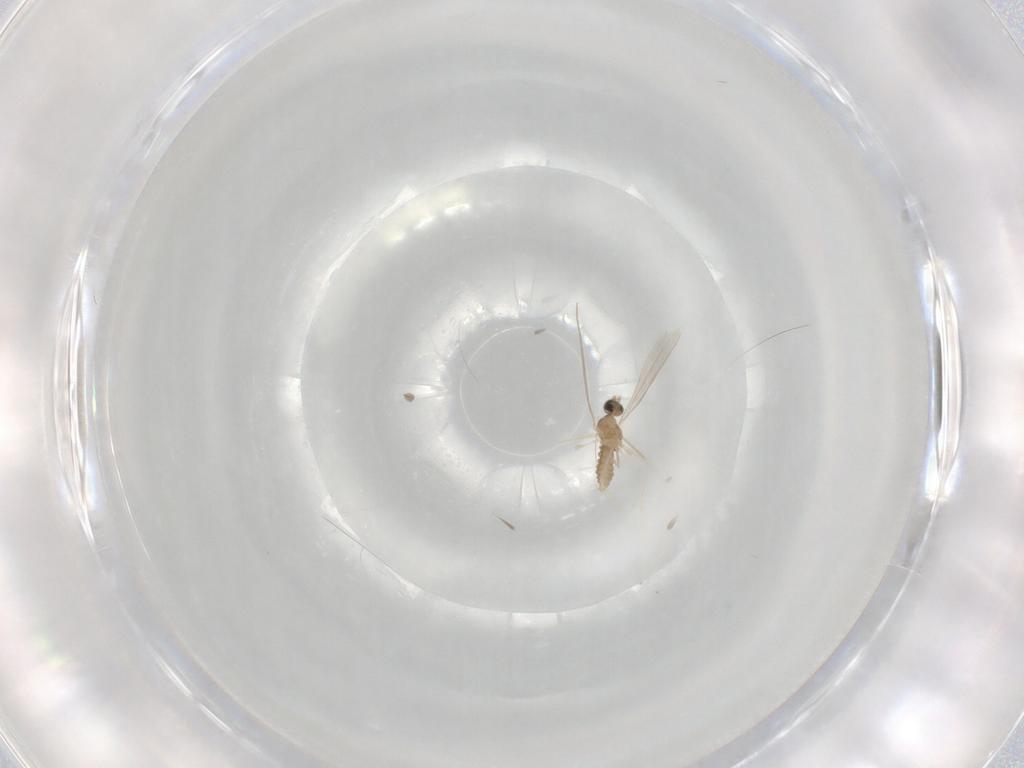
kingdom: Animalia
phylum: Arthropoda
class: Insecta
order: Diptera
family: Cecidomyiidae
